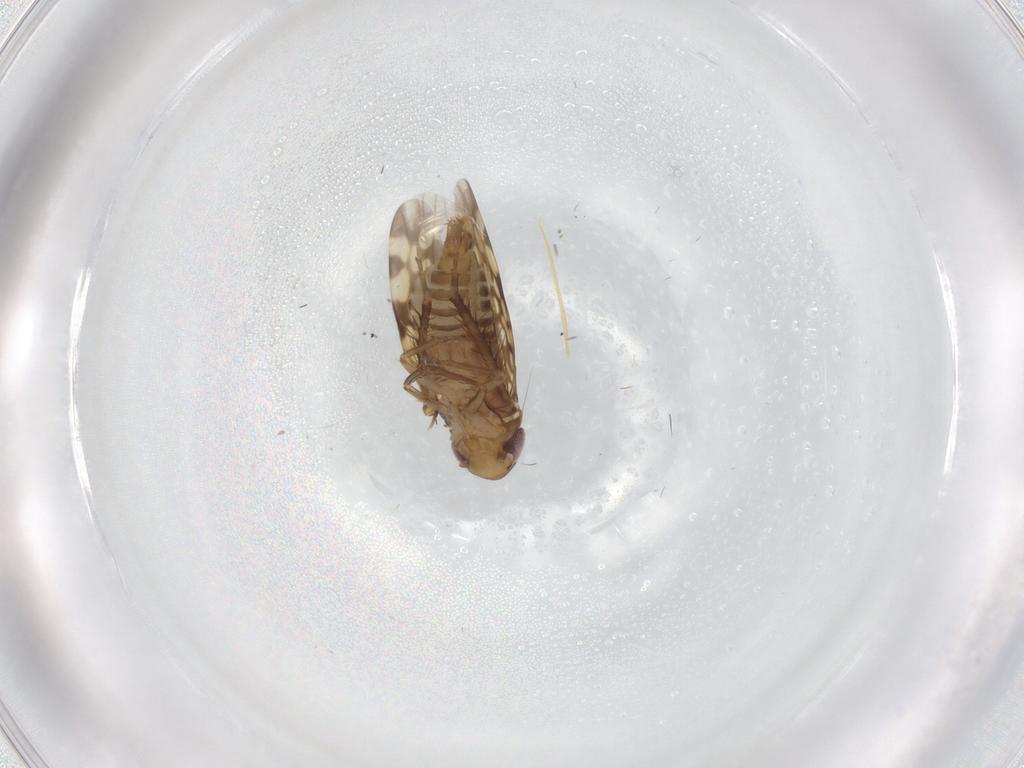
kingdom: Animalia
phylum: Arthropoda
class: Insecta
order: Hemiptera
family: Cicadellidae
